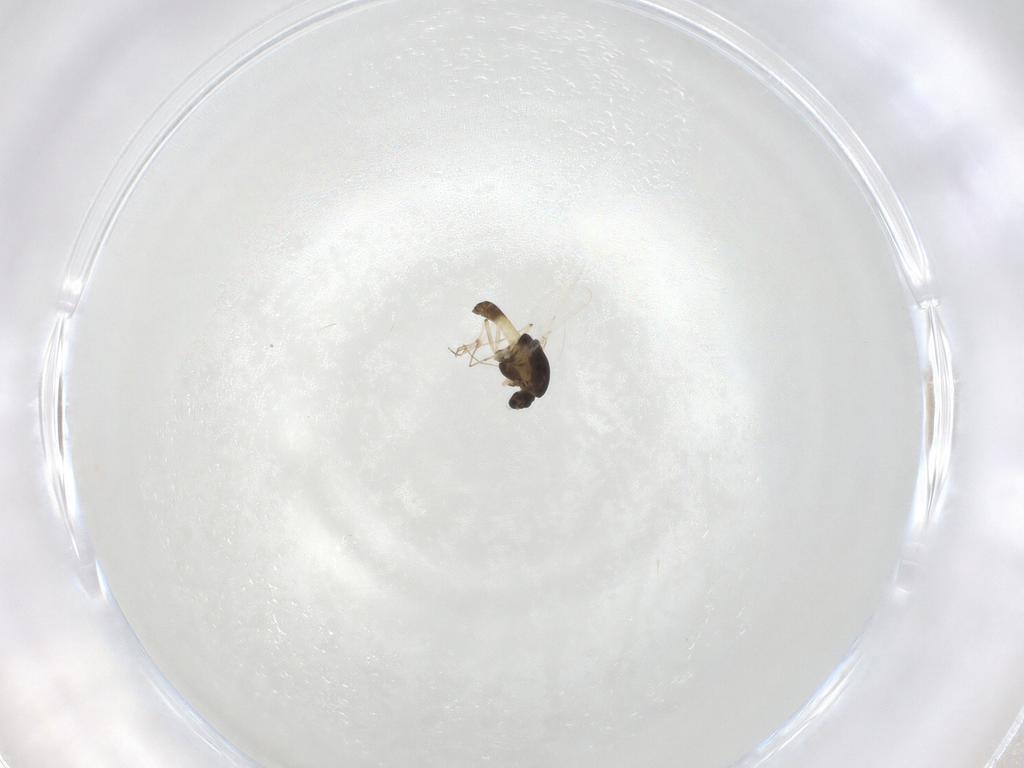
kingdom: Animalia
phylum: Arthropoda
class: Insecta
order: Diptera
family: Chironomidae
